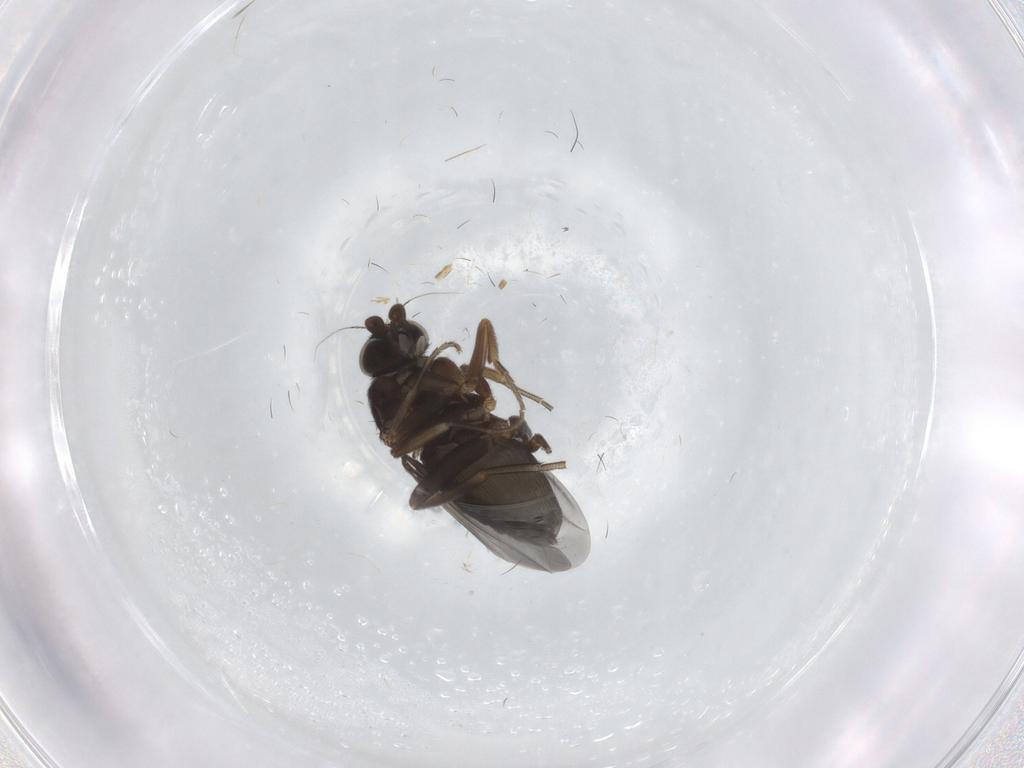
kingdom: Animalia
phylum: Arthropoda
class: Insecta
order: Diptera
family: Phoridae
